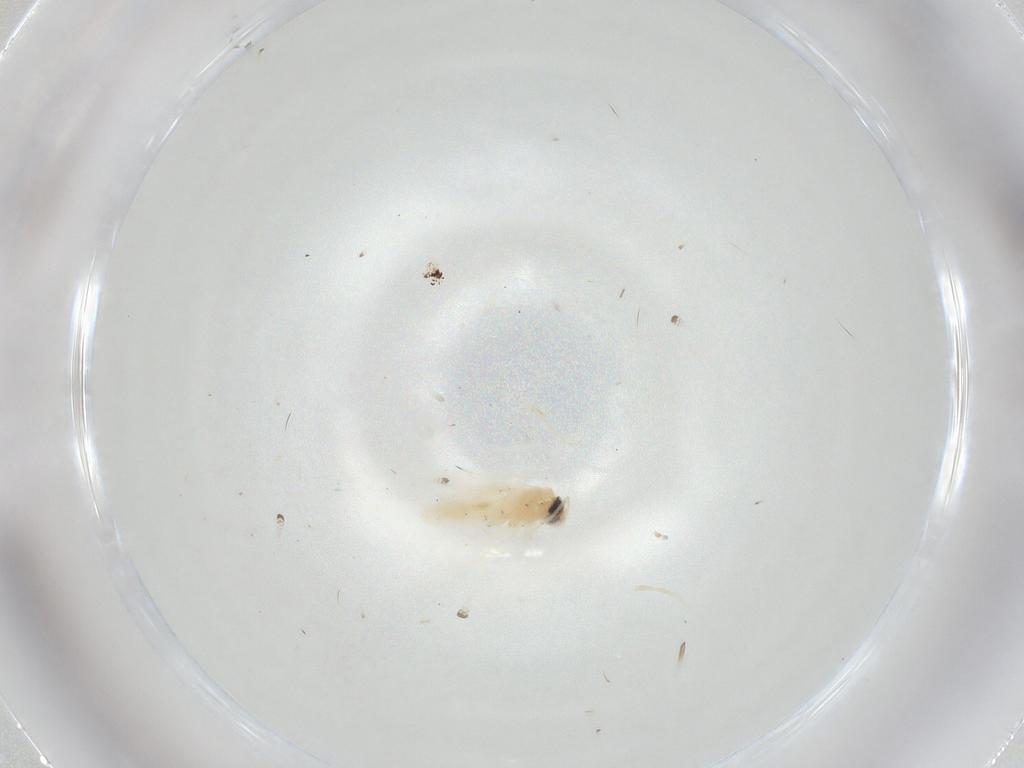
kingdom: Animalia
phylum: Arthropoda
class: Insecta
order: Lepidoptera
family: Nepticulidae
